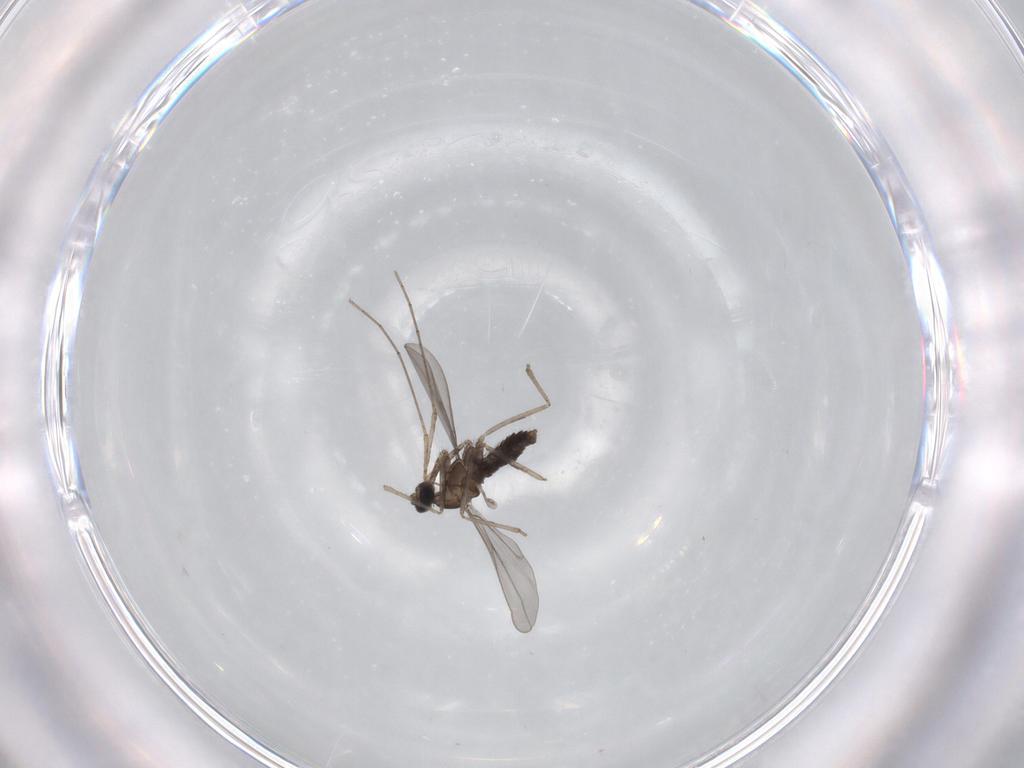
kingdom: Animalia
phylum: Arthropoda
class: Insecta
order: Diptera
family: Cecidomyiidae
